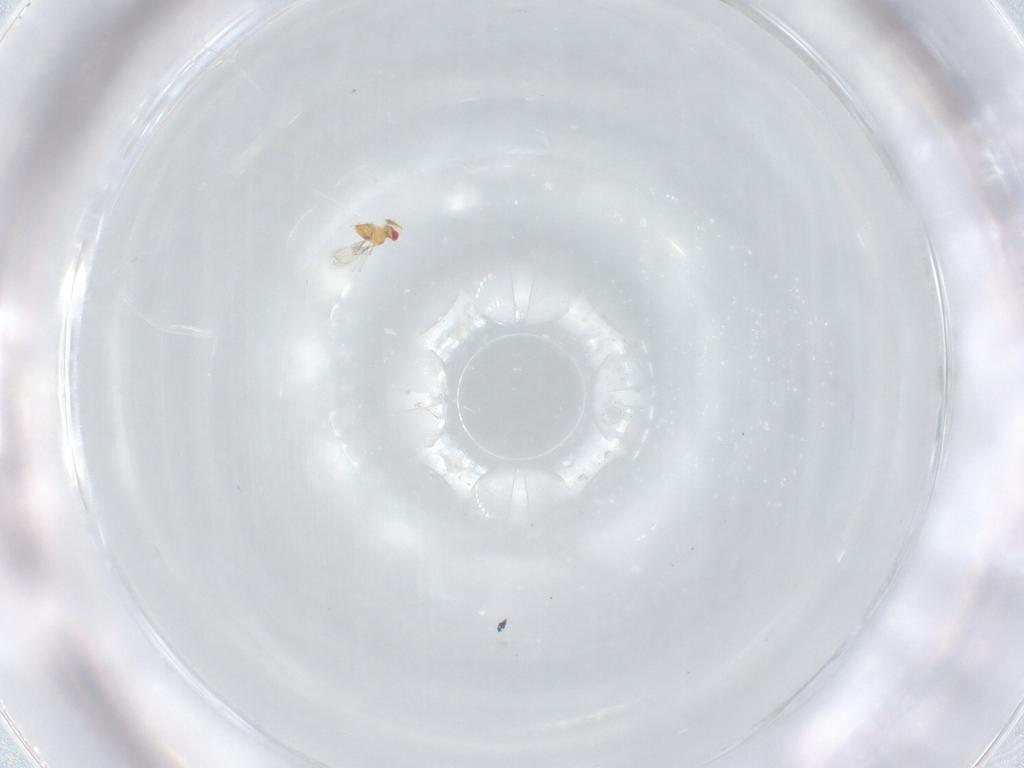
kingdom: Animalia
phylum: Arthropoda
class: Insecta
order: Hymenoptera
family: Trichogrammatidae
